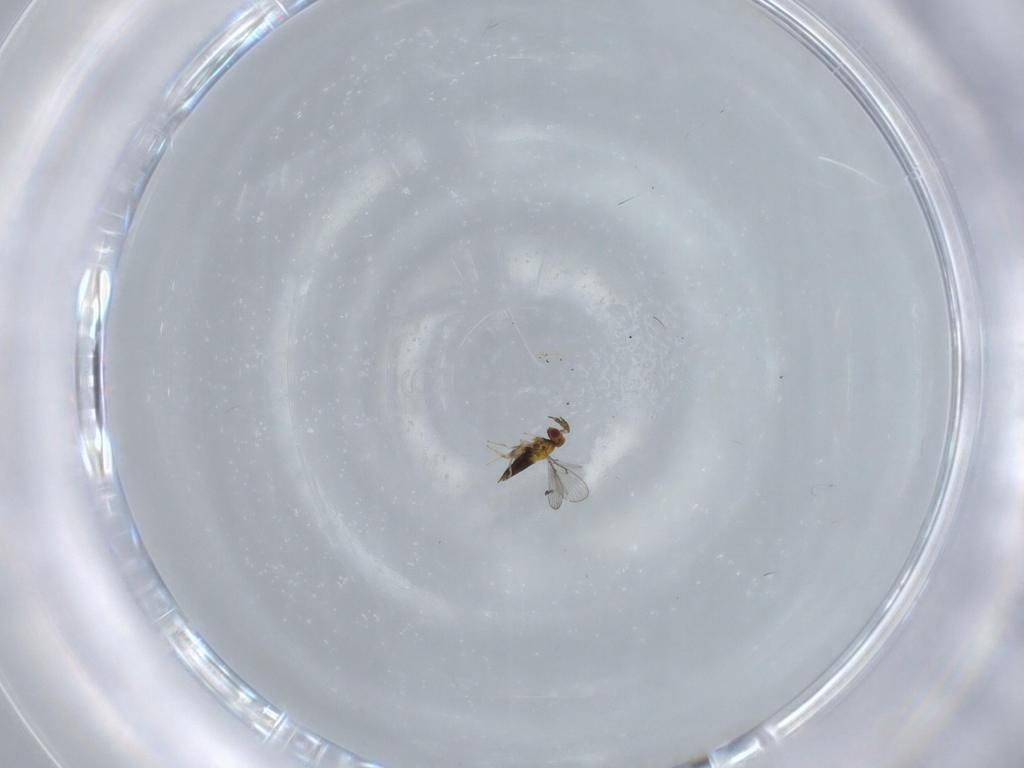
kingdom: Animalia
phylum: Arthropoda
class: Insecta
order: Hymenoptera
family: Trichogrammatidae
